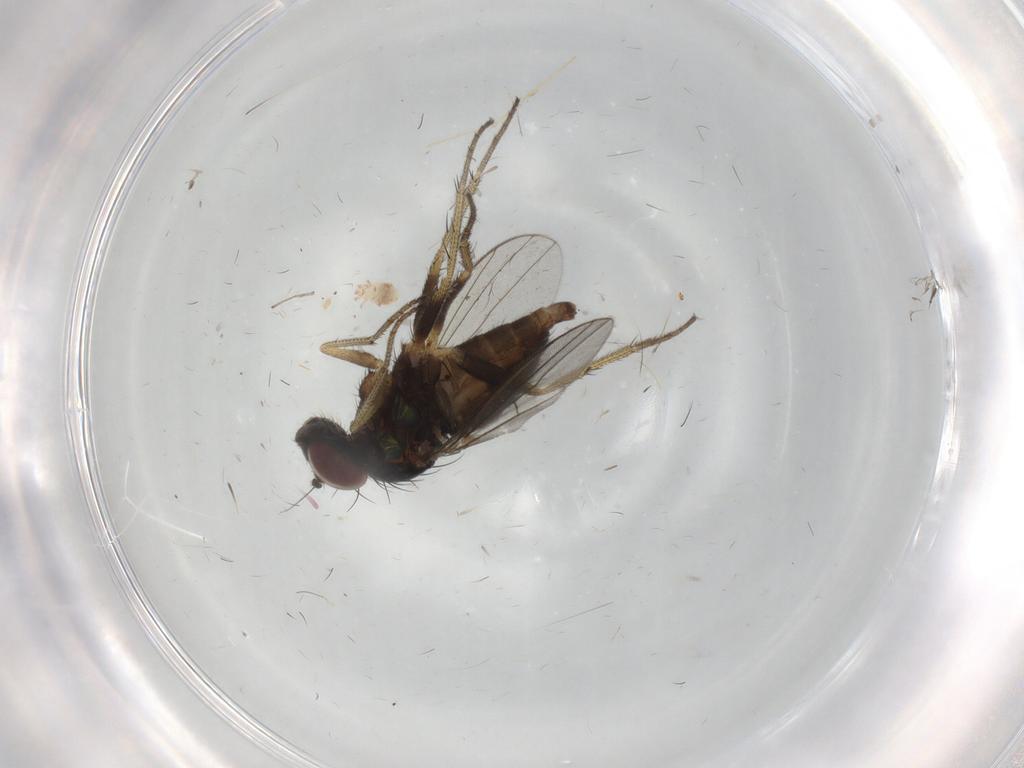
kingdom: Animalia
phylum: Arthropoda
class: Insecta
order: Diptera
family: Dolichopodidae
